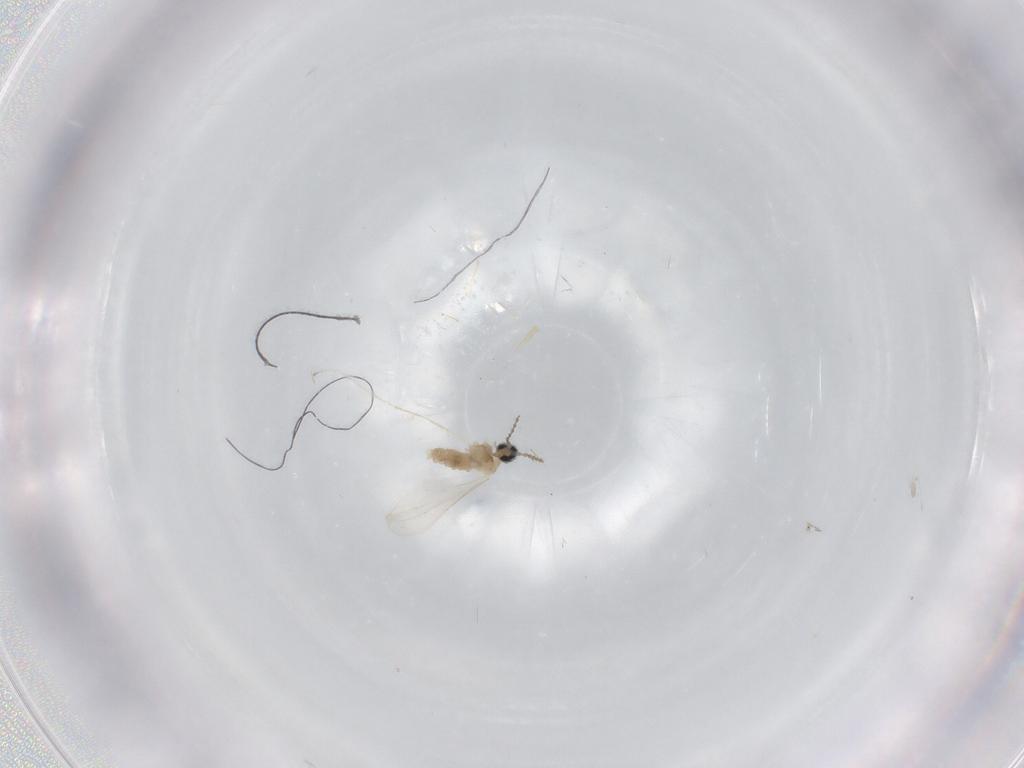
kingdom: Animalia
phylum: Arthropoda
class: Insecta
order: Diptera
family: Cecidomyiidae
